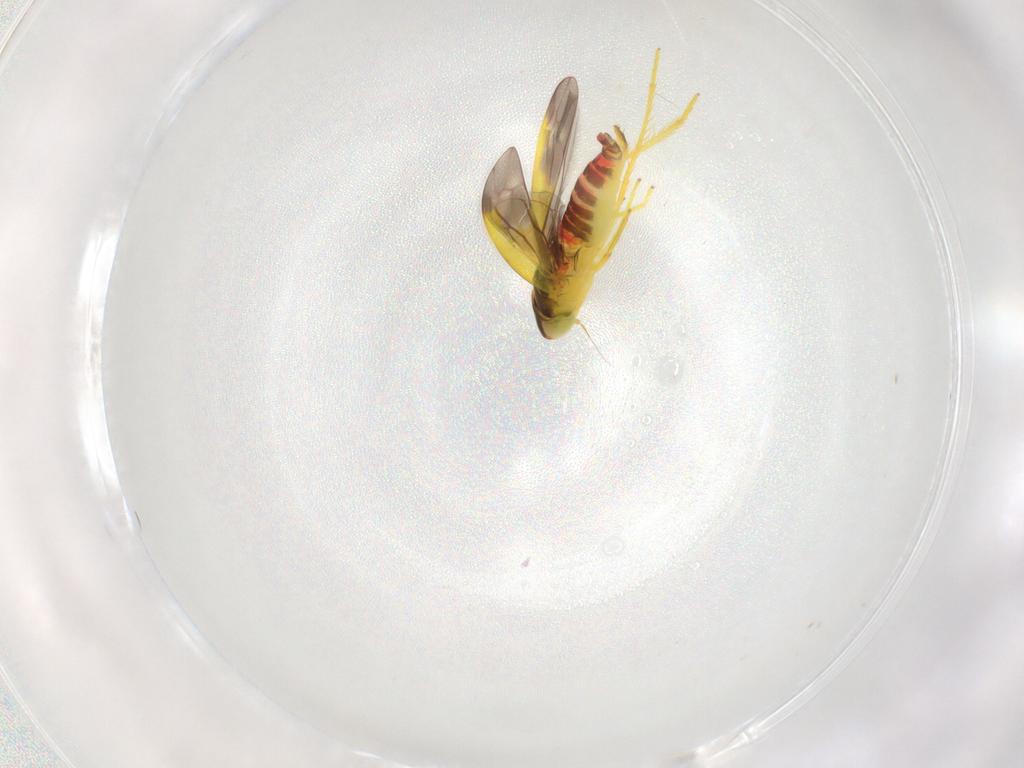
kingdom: Animalia
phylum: Arthropoda
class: Insecta
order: Hemiptera
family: Cicadellidae
